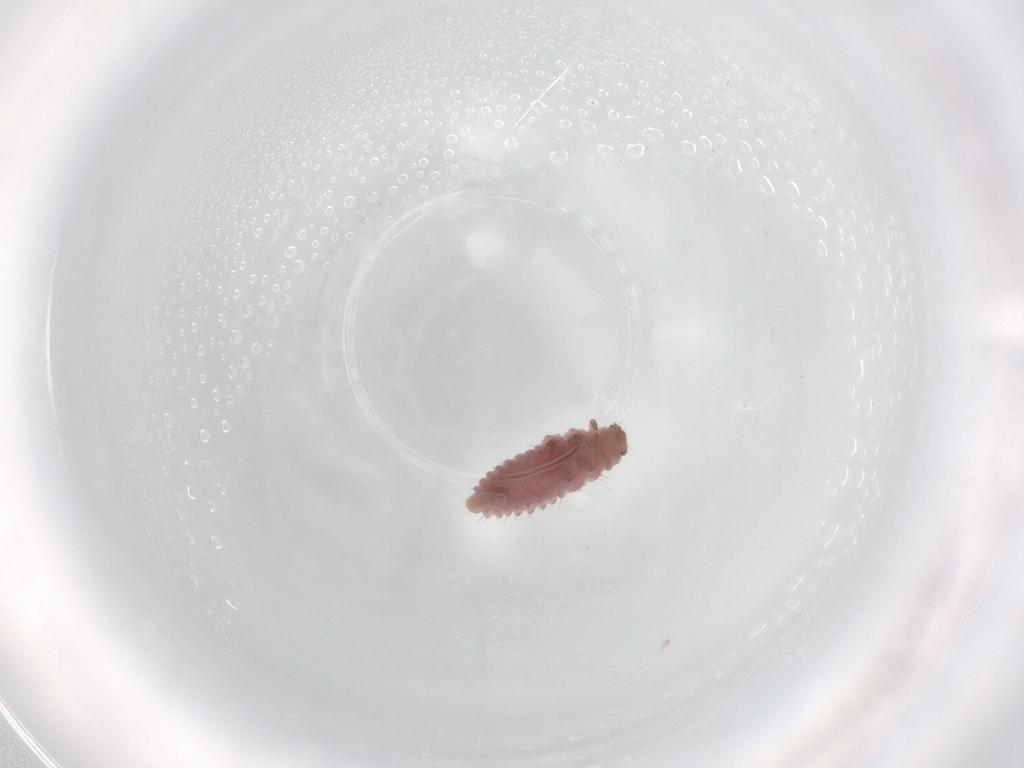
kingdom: Animalia
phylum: Arthropoda
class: Insecta
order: Coleoptera
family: Coccinellidae
